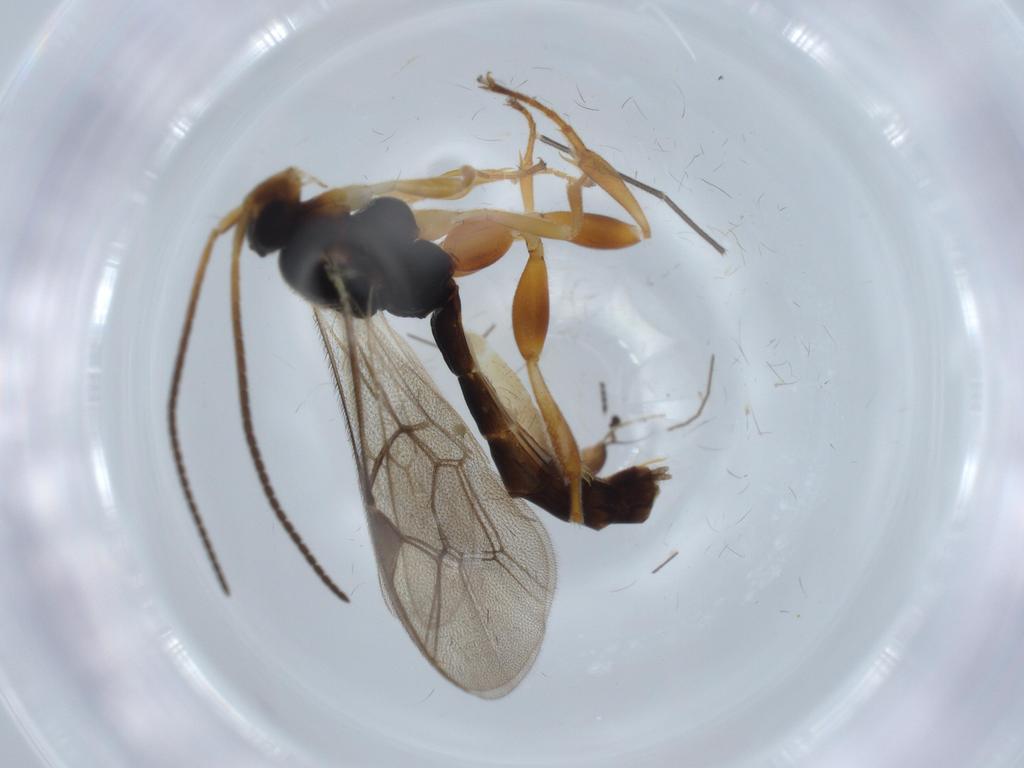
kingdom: Animalia
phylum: Arthropoda
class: Insecta
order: Hymenoptera
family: Ichneumonidae
